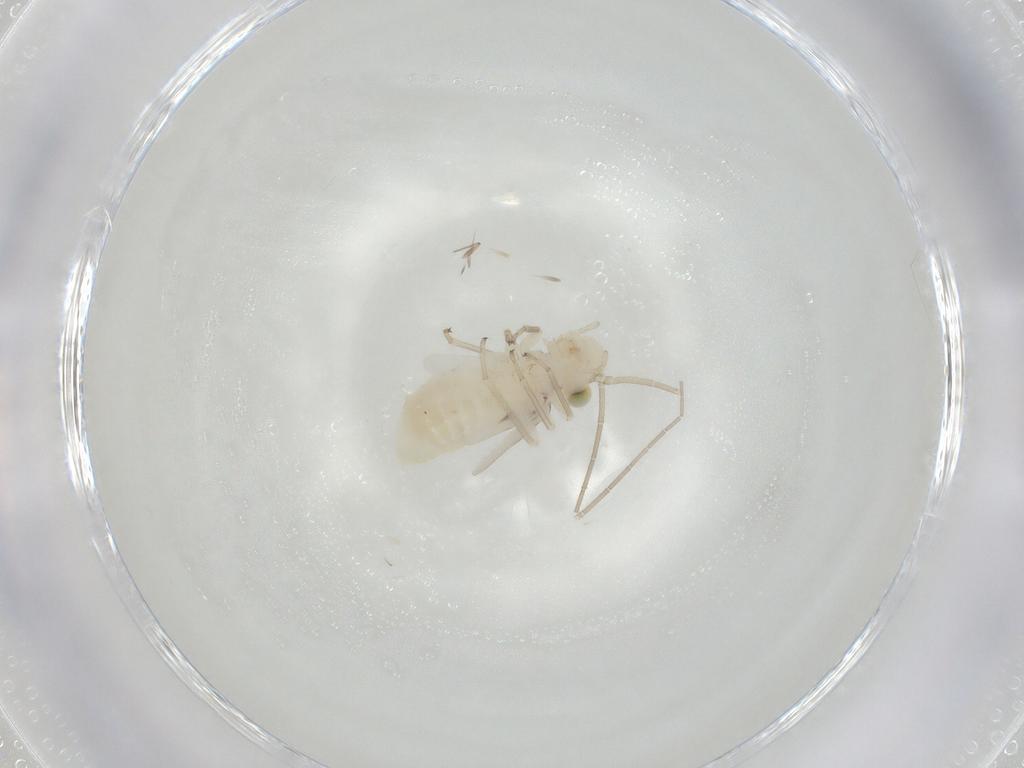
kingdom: Animalia
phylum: Arthropoda
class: Insecta
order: Psocodea
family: Caeciliusidae
